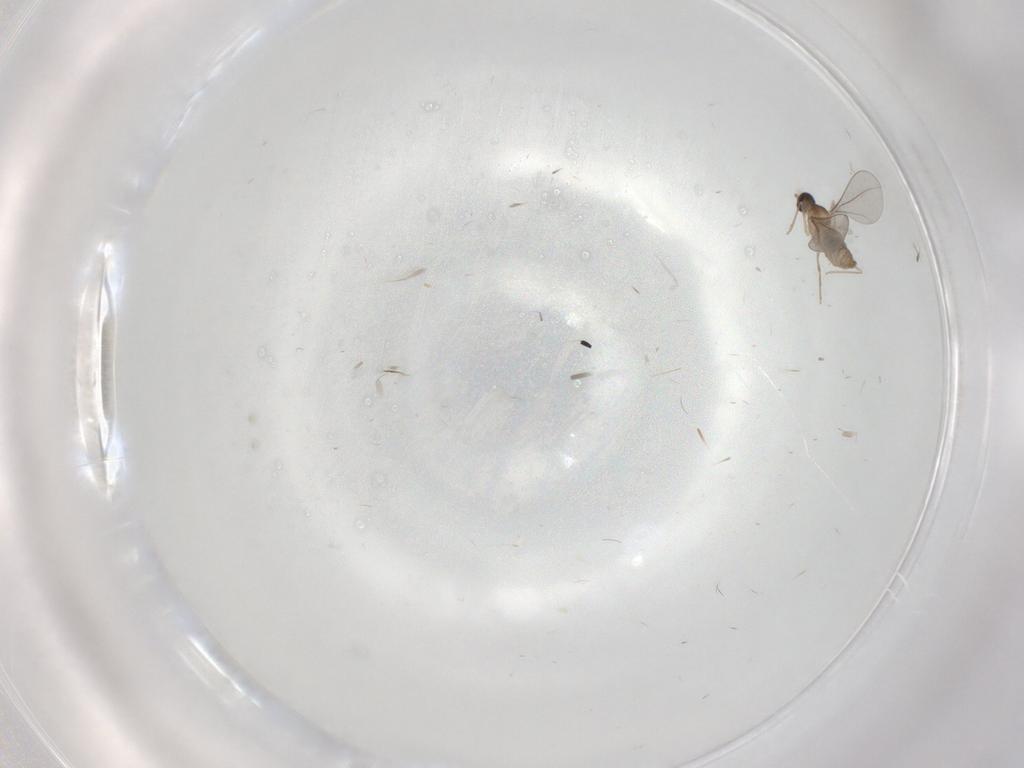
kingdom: Animalia
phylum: Arthropoda
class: Insecta
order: Diptera
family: Cecidomyiidae
